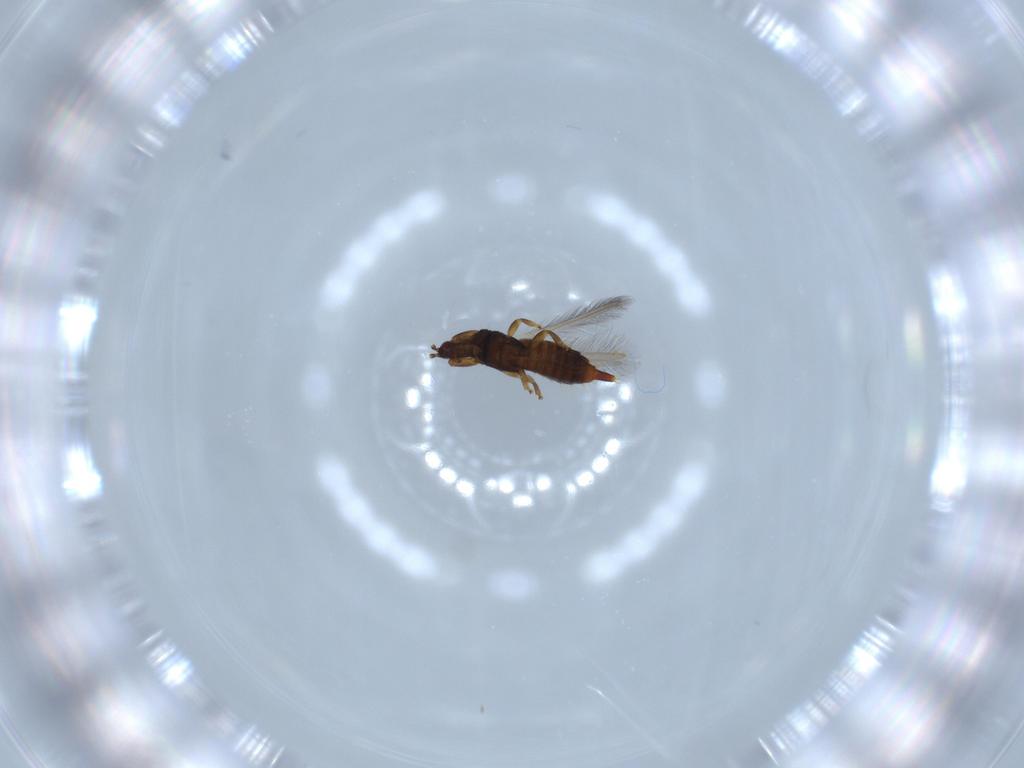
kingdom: Animalia
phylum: Arthropoda
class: Insecta
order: Thysanoptera
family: Phlaeothripidae
